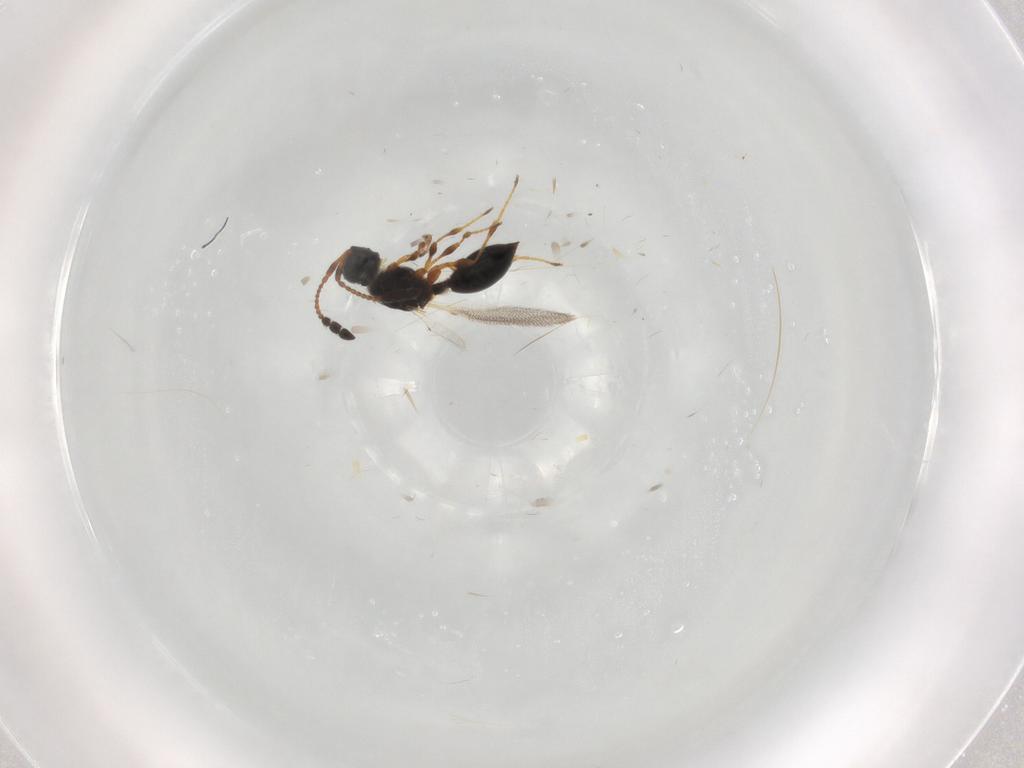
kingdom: Animalia
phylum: Arthropoda
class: Insecta
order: Hymenoptera
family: Diapriidae
